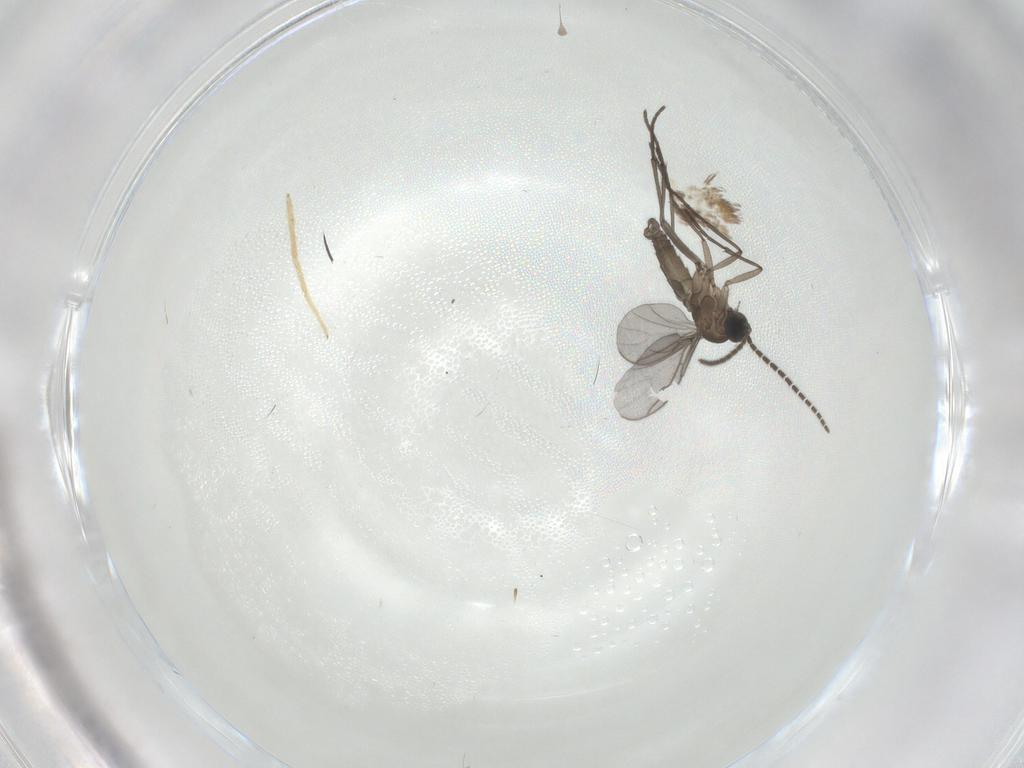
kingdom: Animalia
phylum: Arthropoda
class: Insecta
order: Diptera
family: Sciaridae
